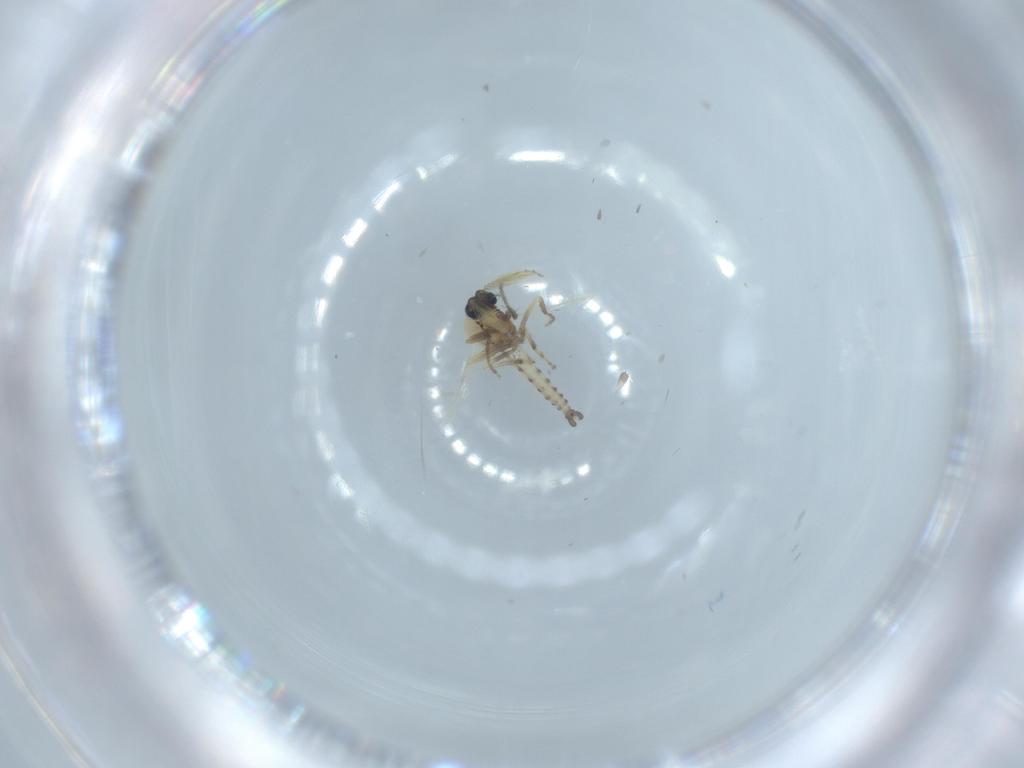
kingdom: Animalia
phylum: Arthropoda
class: Insecta
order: Diptera
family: Ceratopogonidae
